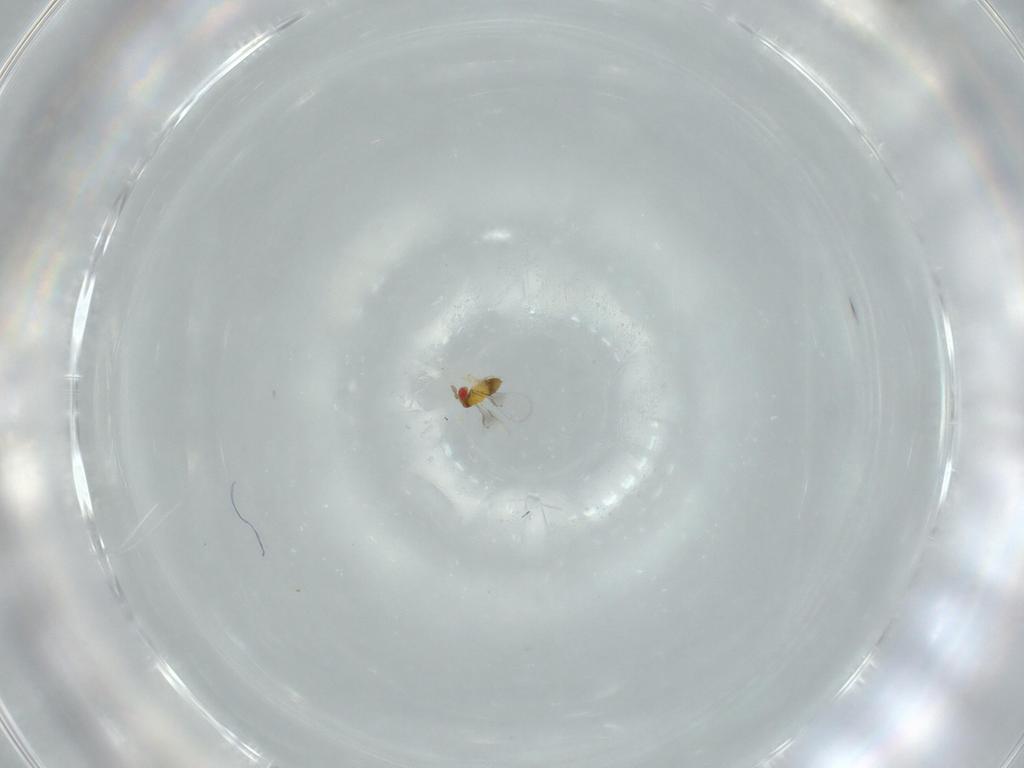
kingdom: Animalia
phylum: Arthropoda
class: Insecta
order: Hymenoptera
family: Trichogrammatidae
